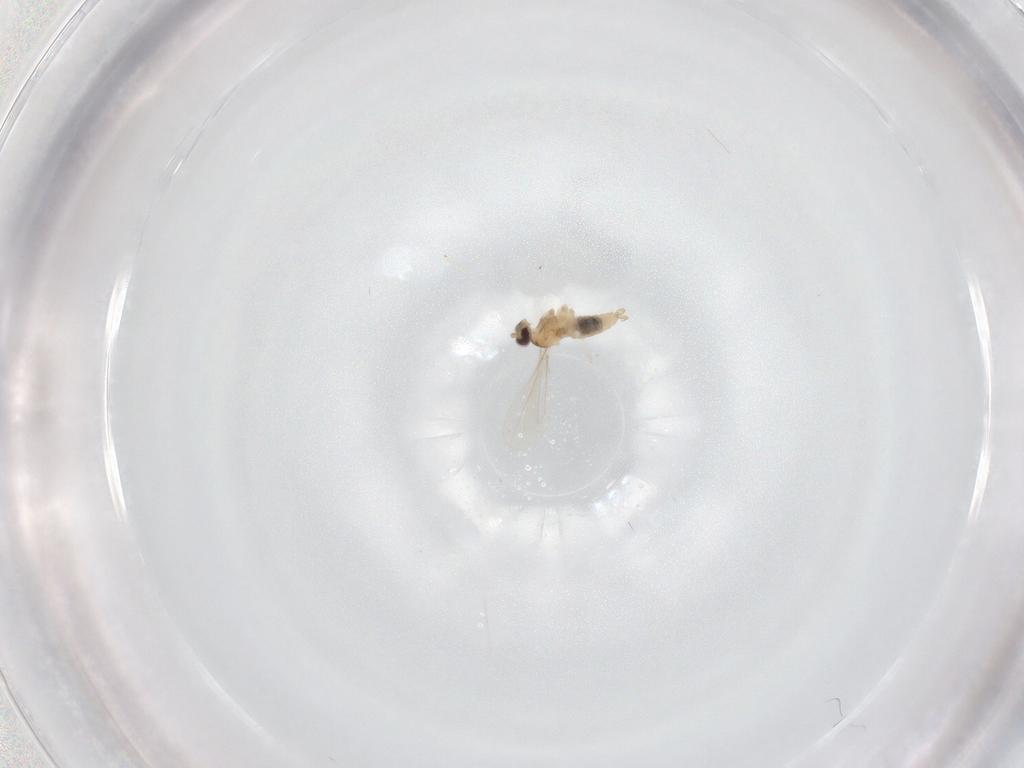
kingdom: Animalia
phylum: Arthropoda
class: Insecta
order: Diptera
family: Cecidomyiidae
